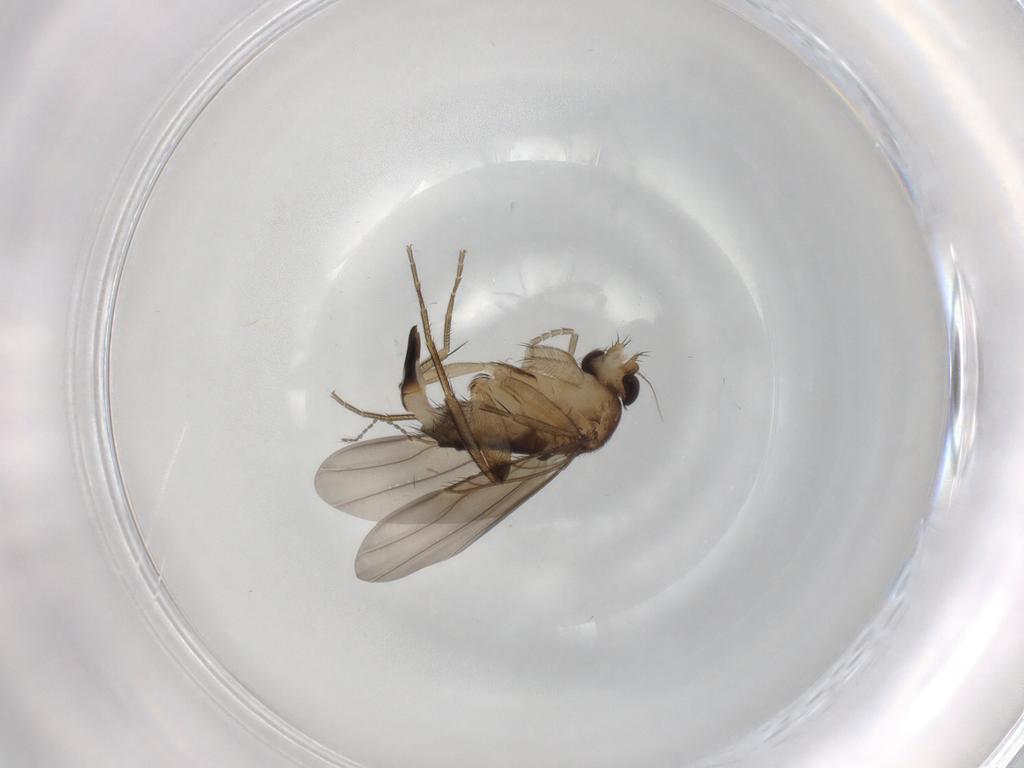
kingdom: Animalia
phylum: Arthropoda
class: Insecta
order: Diptera
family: Phoridae
